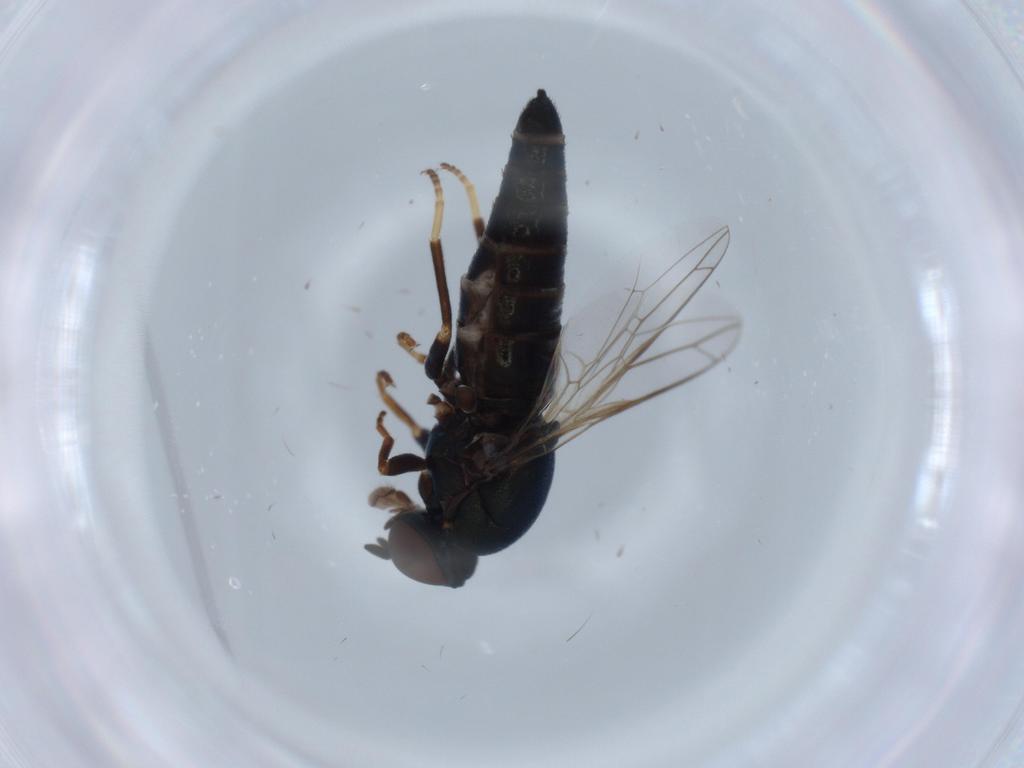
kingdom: Animalia
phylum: Arthropoda
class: Insecta
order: Diptera
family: Scenopinidae
